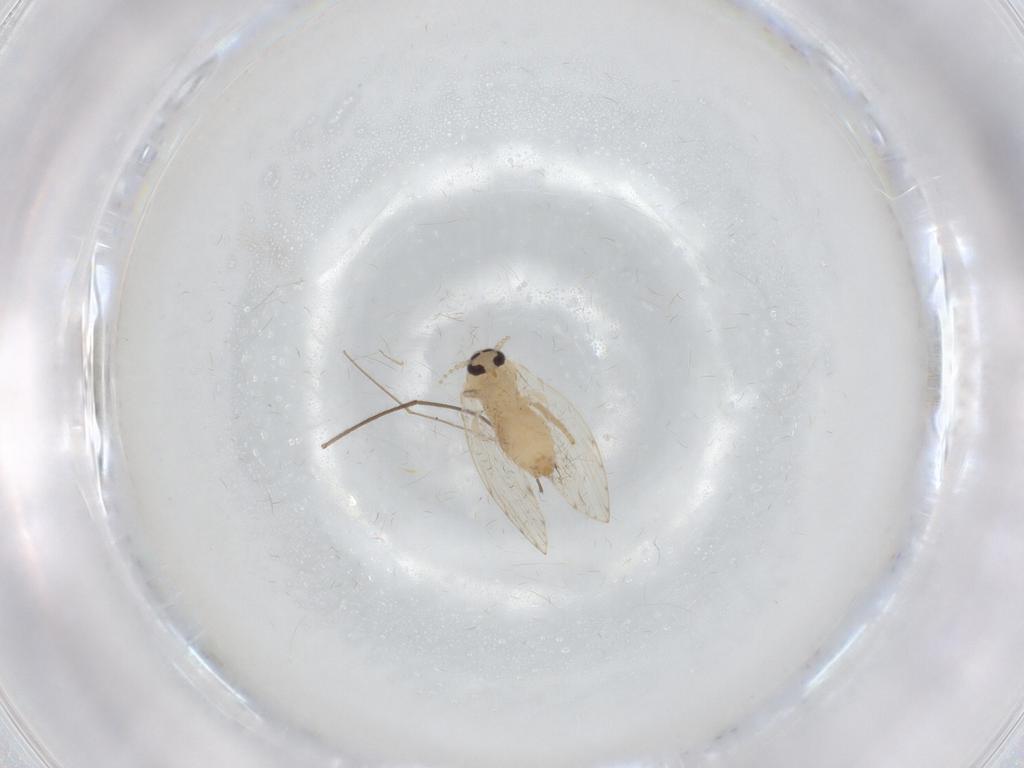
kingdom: Animalia
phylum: Arthropoda
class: Insecta
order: Diptera
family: Psychodidae
